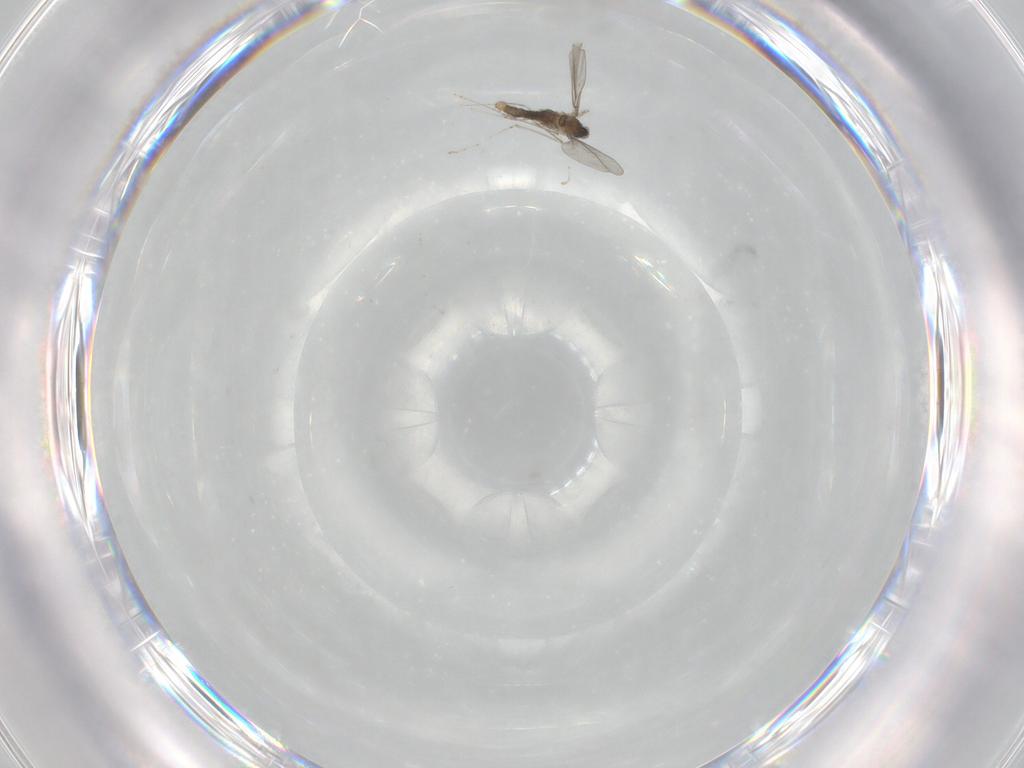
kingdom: Animalia
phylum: Arthropoda
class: Insecta
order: Diptera
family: Cecidomyiidae
